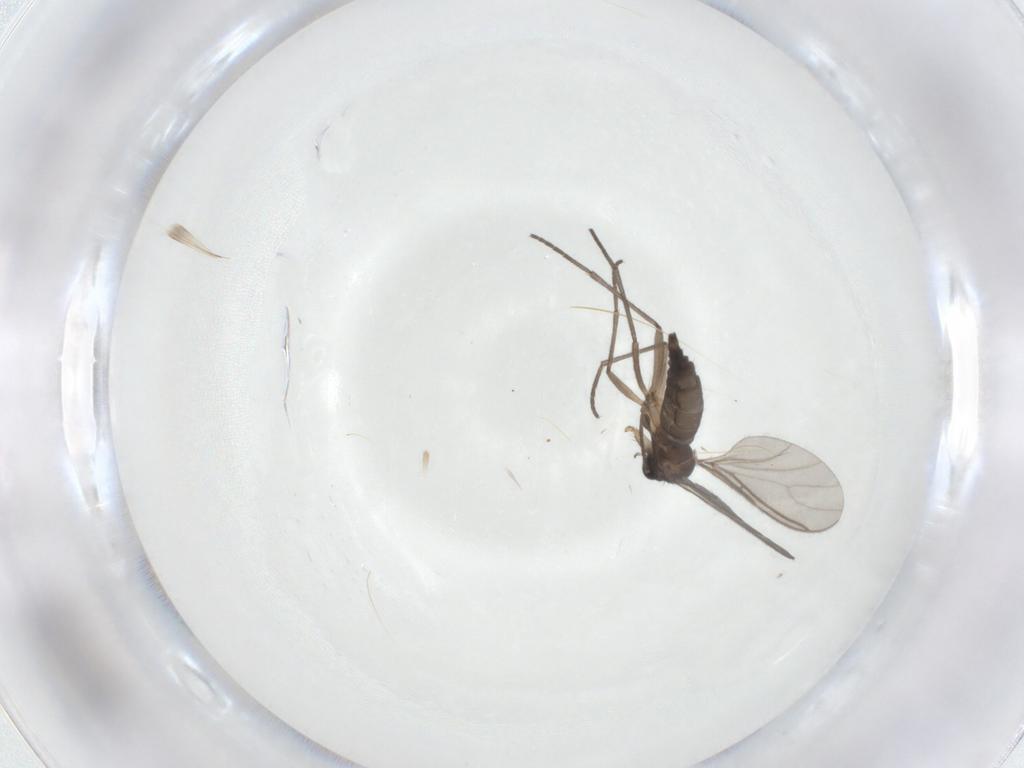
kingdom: Animalia
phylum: Arthropoda
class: Insecta
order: Diptera
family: Sciaridae
